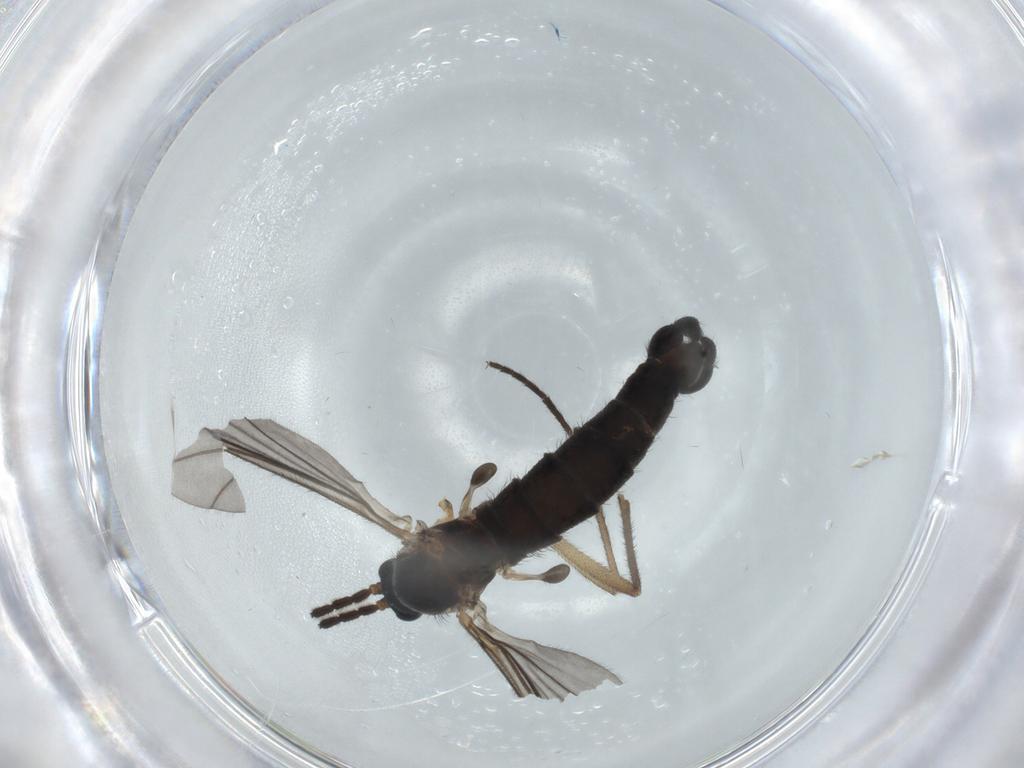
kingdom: Animalia
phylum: Arthropoda
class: Insecta
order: Diptera
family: Sciaridae
